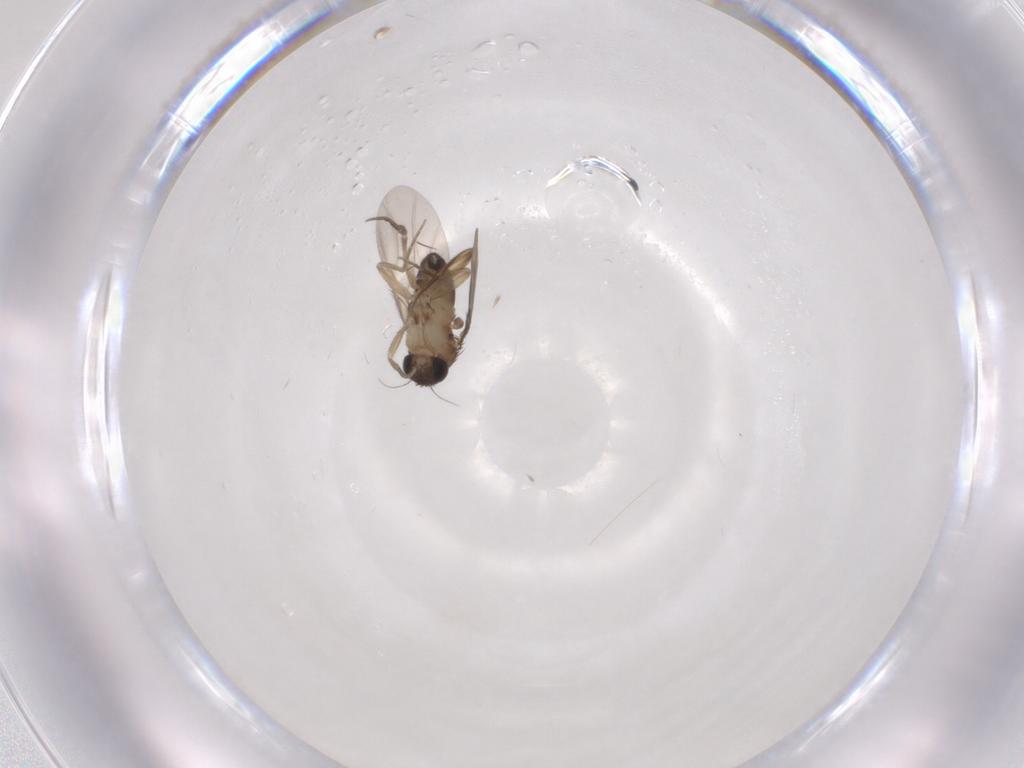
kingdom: Animalia
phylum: Arthropoda
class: Insecta
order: Diptera
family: Phoridae
